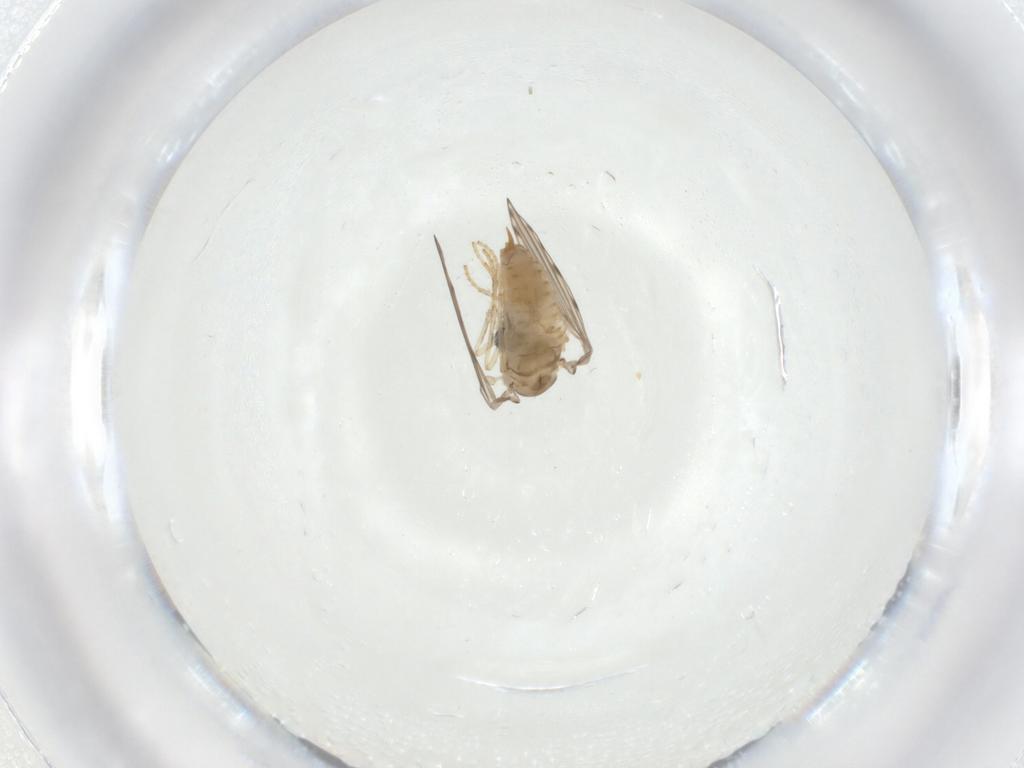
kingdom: Animalia
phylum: Arthropoda
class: Insecta
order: Diptera
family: Psychodidae
